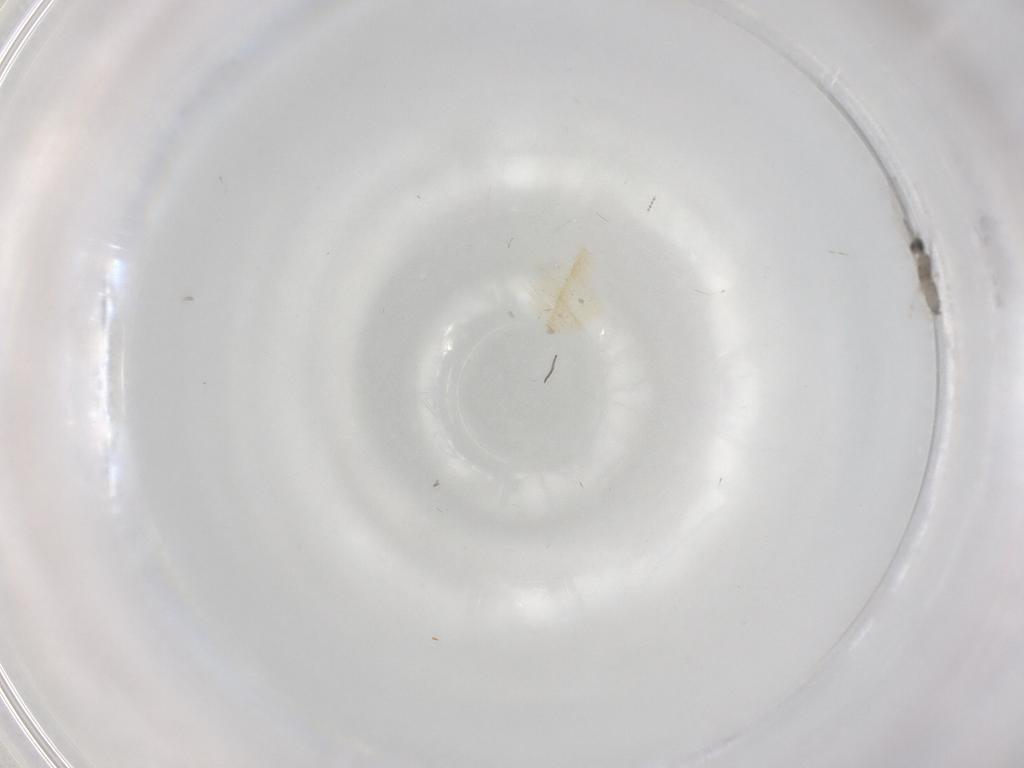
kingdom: Animalia
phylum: Arthropoda
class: Insecta
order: Diptera
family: Cecidomyiidae
